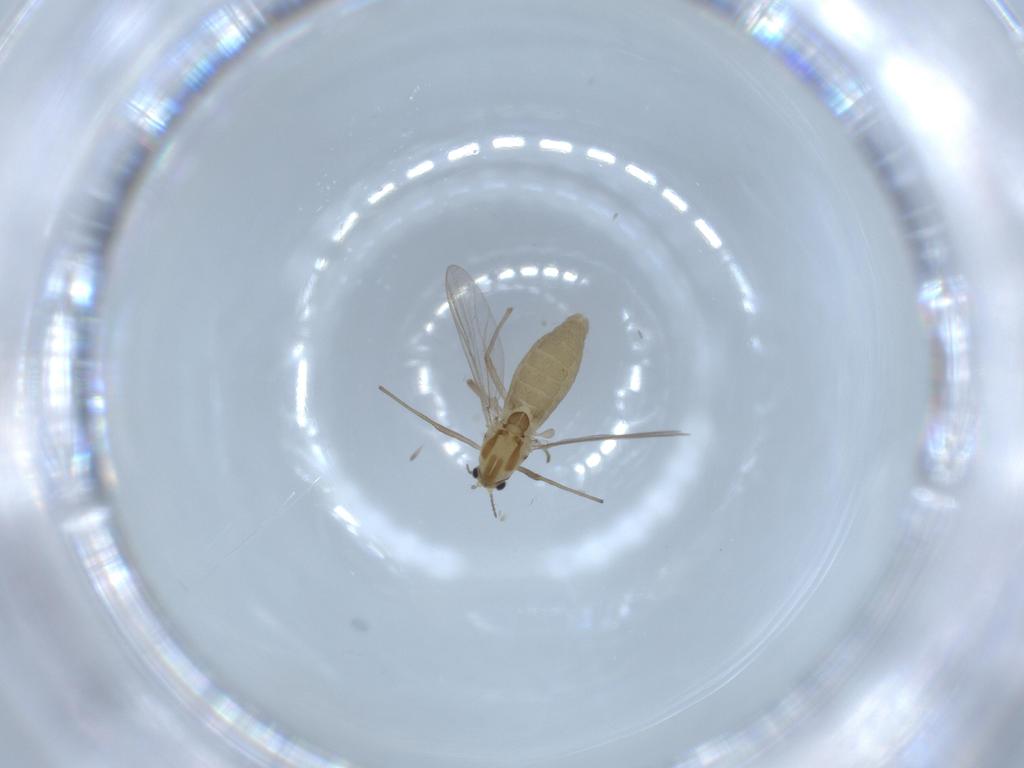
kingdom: Animalia
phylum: Arthropoda
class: Insecta
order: Diptera
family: Chironomidae
